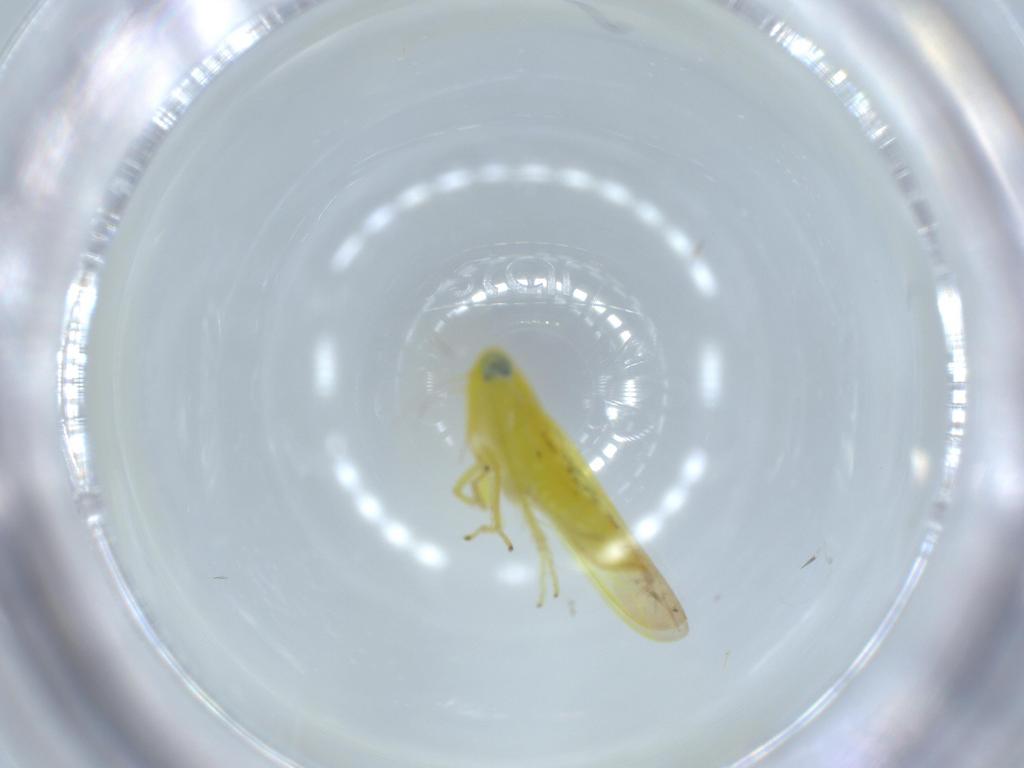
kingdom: Animalia
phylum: Arthropoda
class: Insecta
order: Hemiptera
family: Cicadellidae
